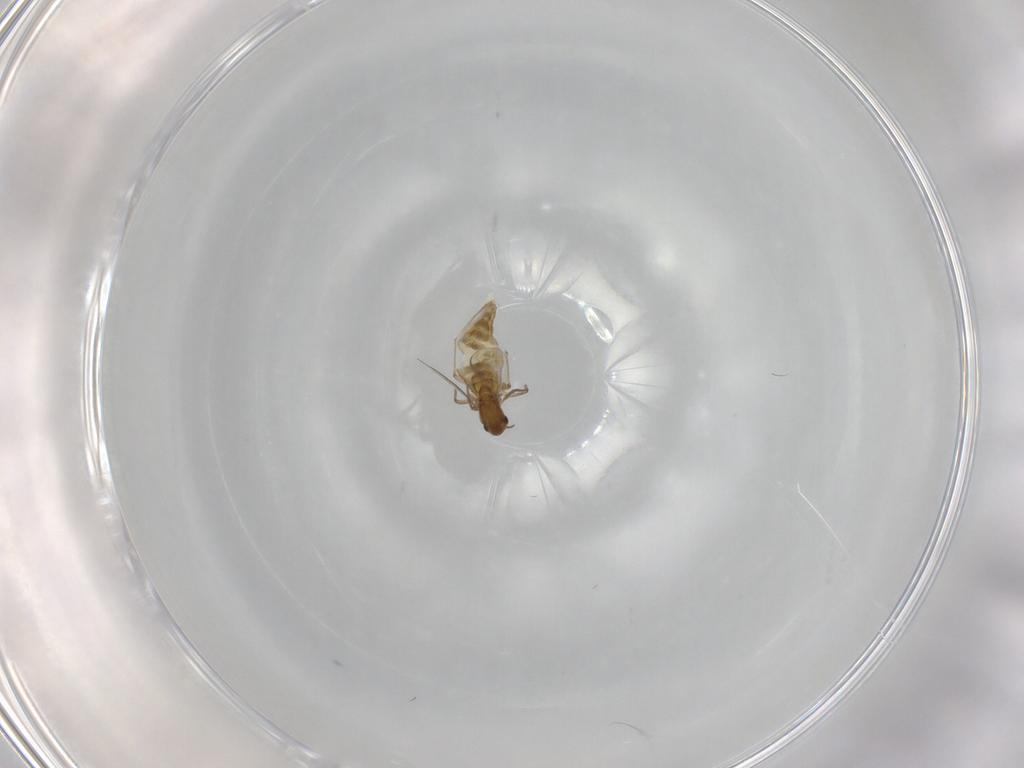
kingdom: Animalia
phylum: Arthropoda
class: Insecta
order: Diptera
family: Chironomidae
